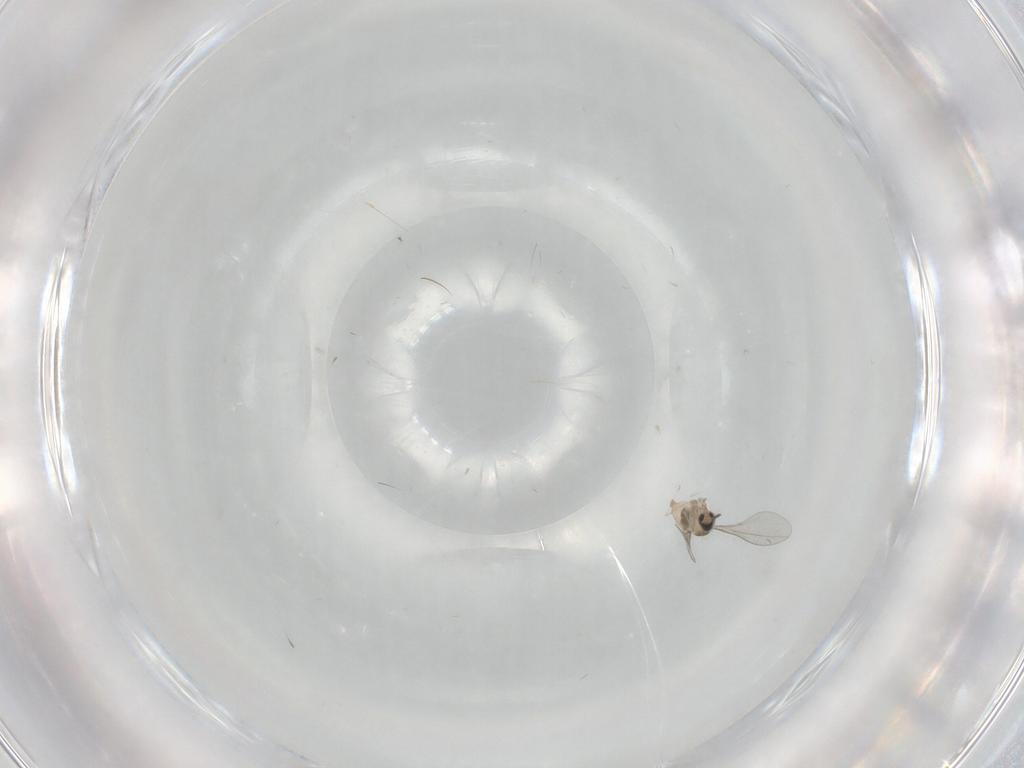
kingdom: Animalia
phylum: Arthropoda
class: Insecta
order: Diptera
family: Cecidomyiidae
